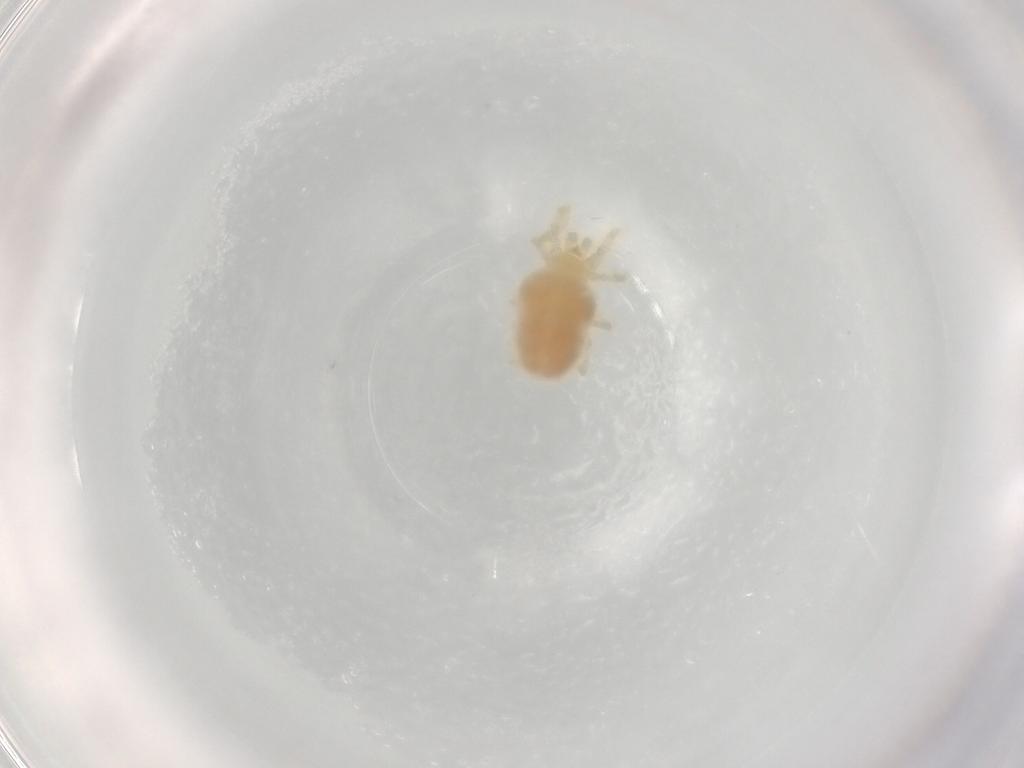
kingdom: Animalia
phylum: Arthropoda
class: Arachnida
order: Trombidiformes
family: Trombidiidae
